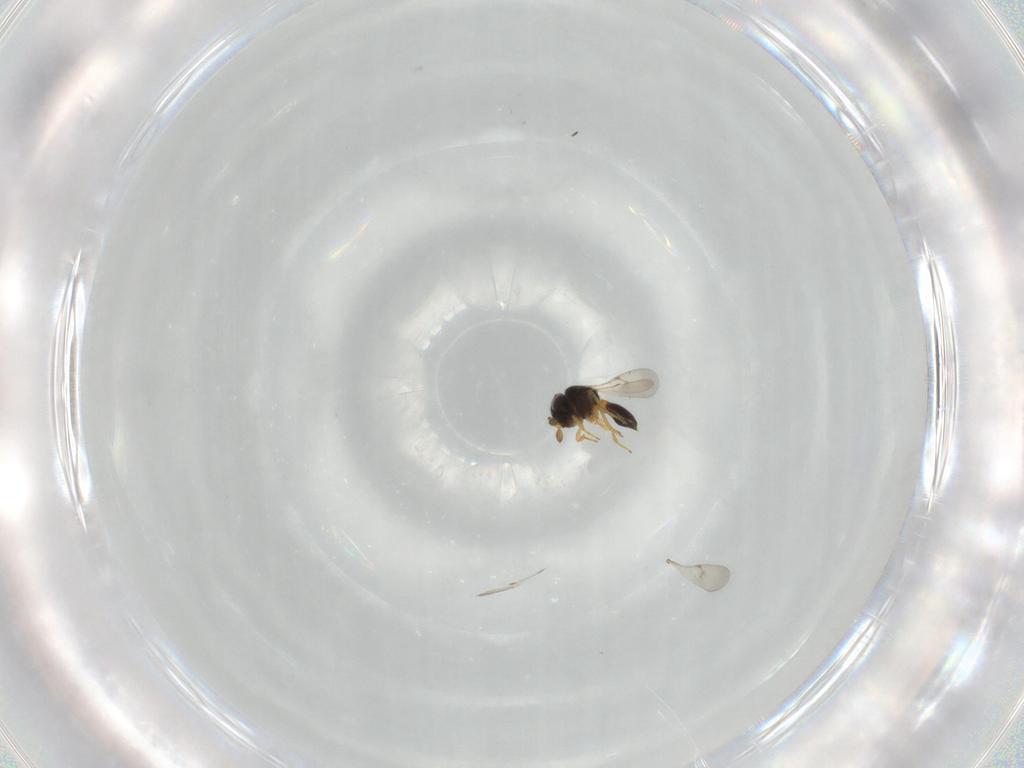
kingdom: Animalia
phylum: Arthropoda
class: Insecta
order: Hymenoptera
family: Scelionidae
